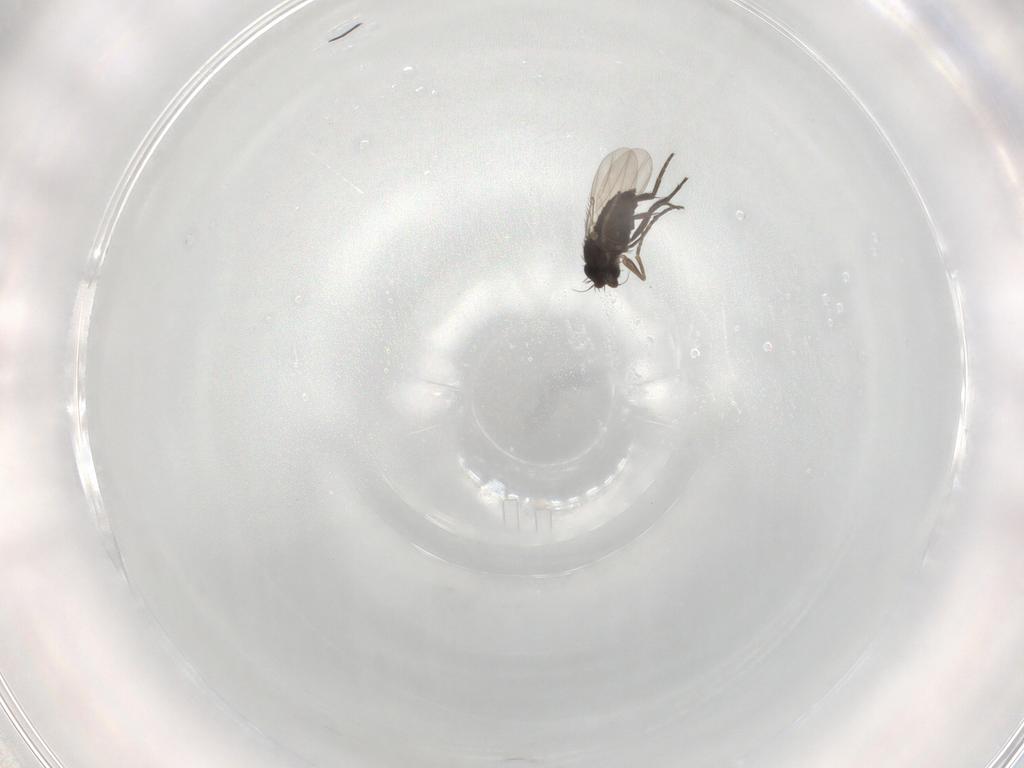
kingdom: Animalia
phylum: Arthropoda
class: Insecta
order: Diptera
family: Phoridae
